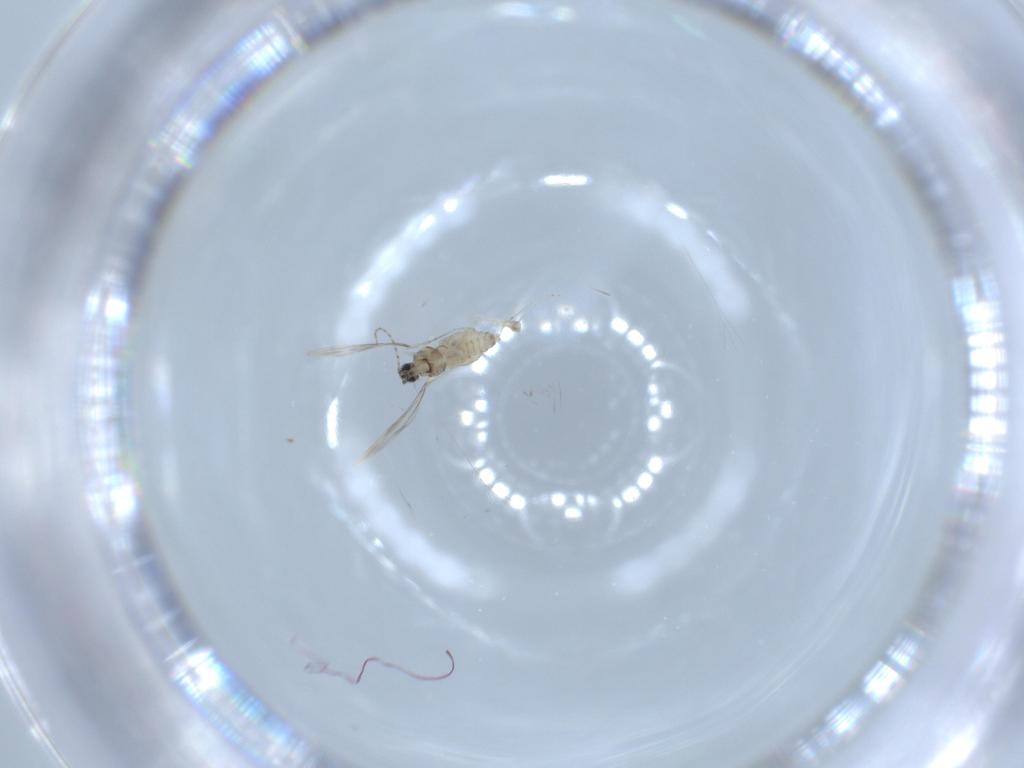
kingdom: Animalia
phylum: Arthropoda
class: Insecta
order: Diptera
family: Cecidomyiidae
